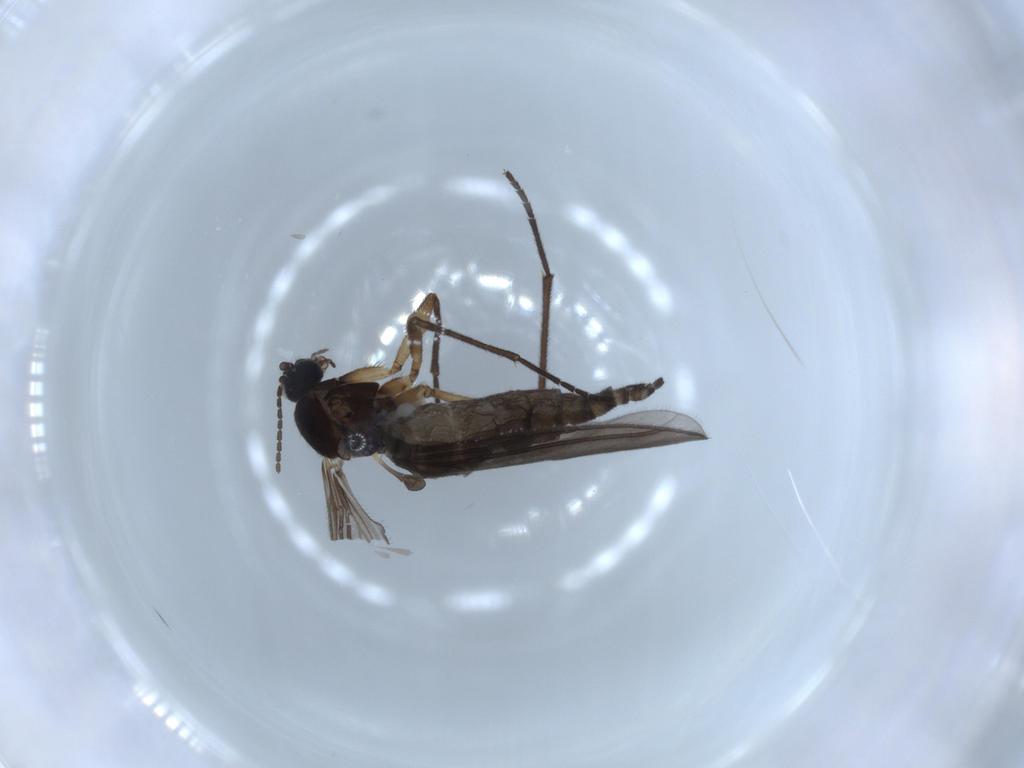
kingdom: Animalia
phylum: Arthropoda
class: Insecta
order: Diptera
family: Sciaridae
